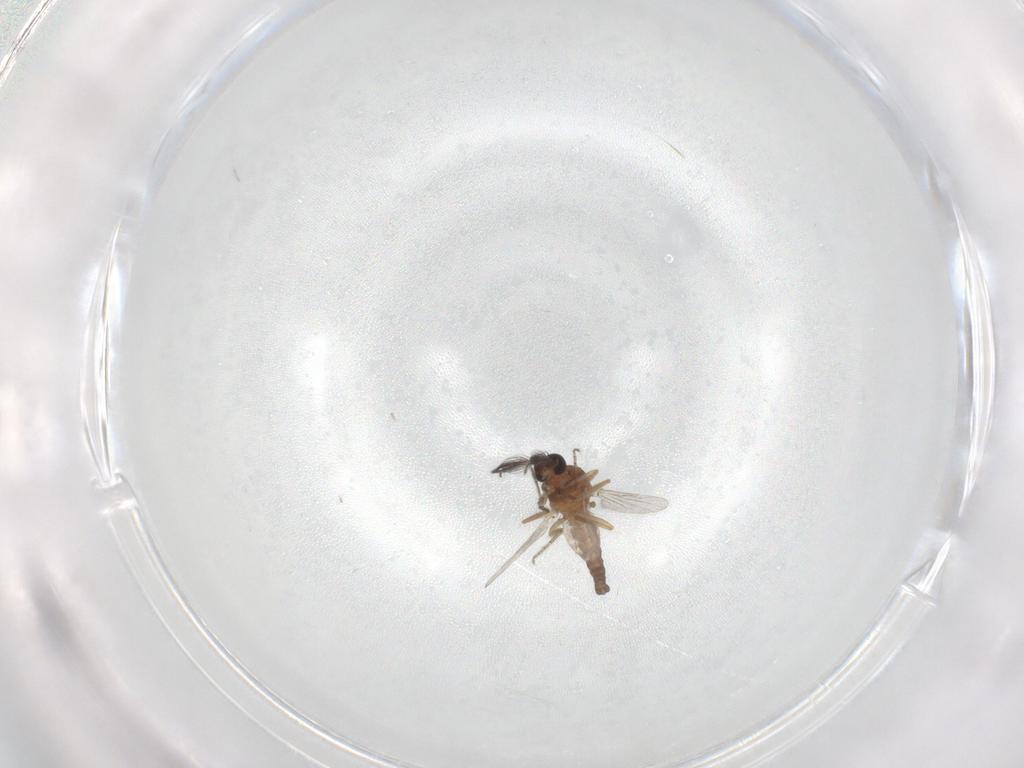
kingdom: Animalia
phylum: Arthropoda
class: Insecta
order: Diptera
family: Ceratopogonidae
